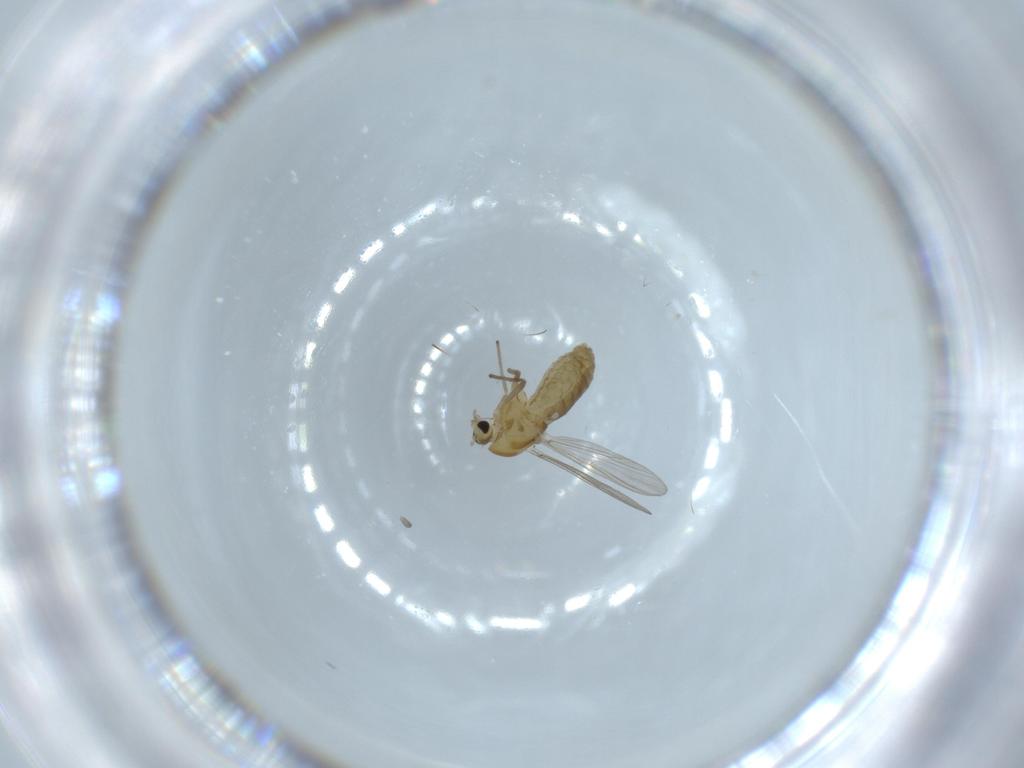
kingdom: Animalia
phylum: Arthropoda
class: Insecta
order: Diptera
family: Chironomidae
